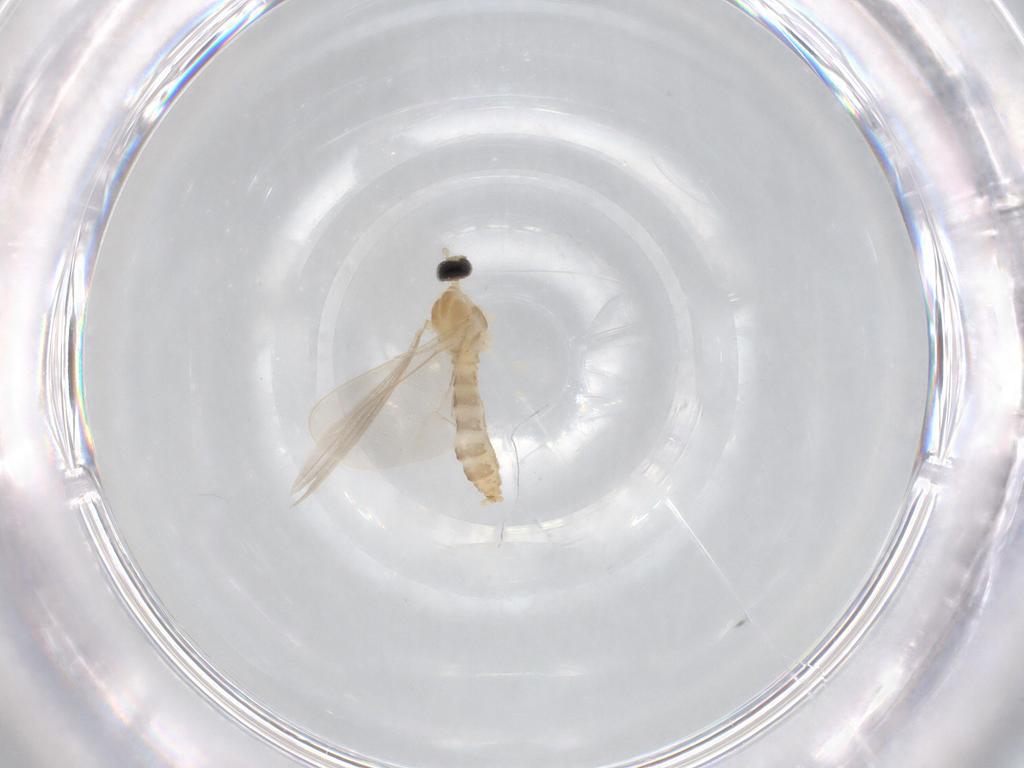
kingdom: Animalia
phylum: Arthropoda
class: Insecta
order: Diptera
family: Cecidomyiidae
